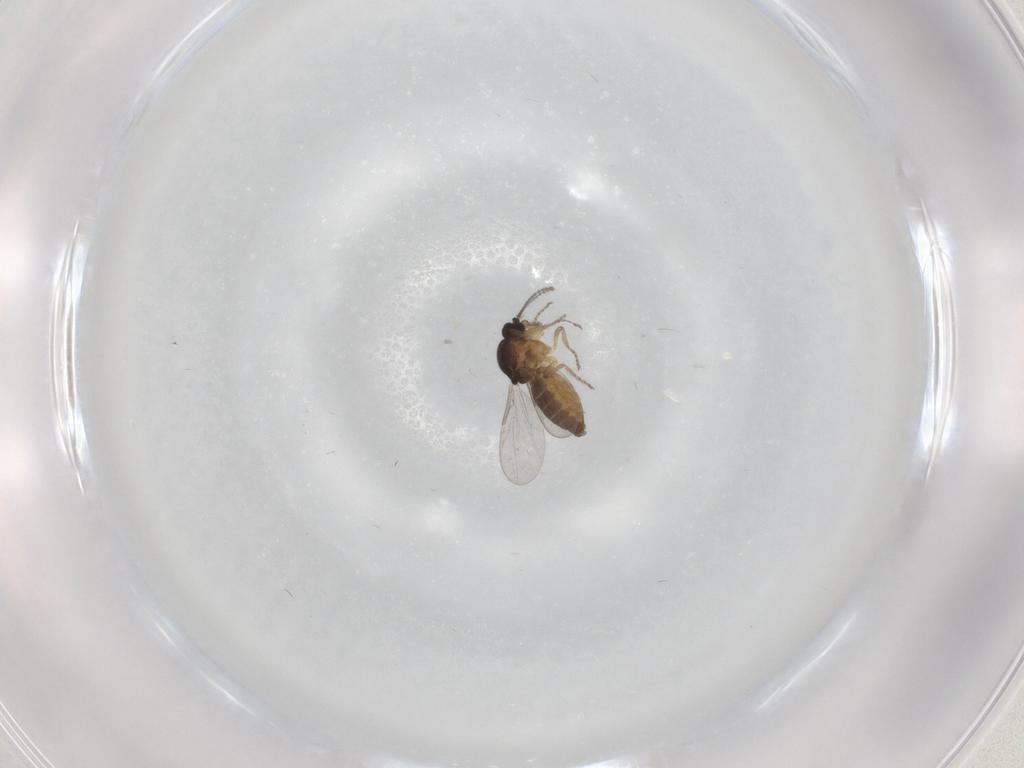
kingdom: Animalia
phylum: Arthropoda
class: Insecta
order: Diptera
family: Ceratopogonidae
